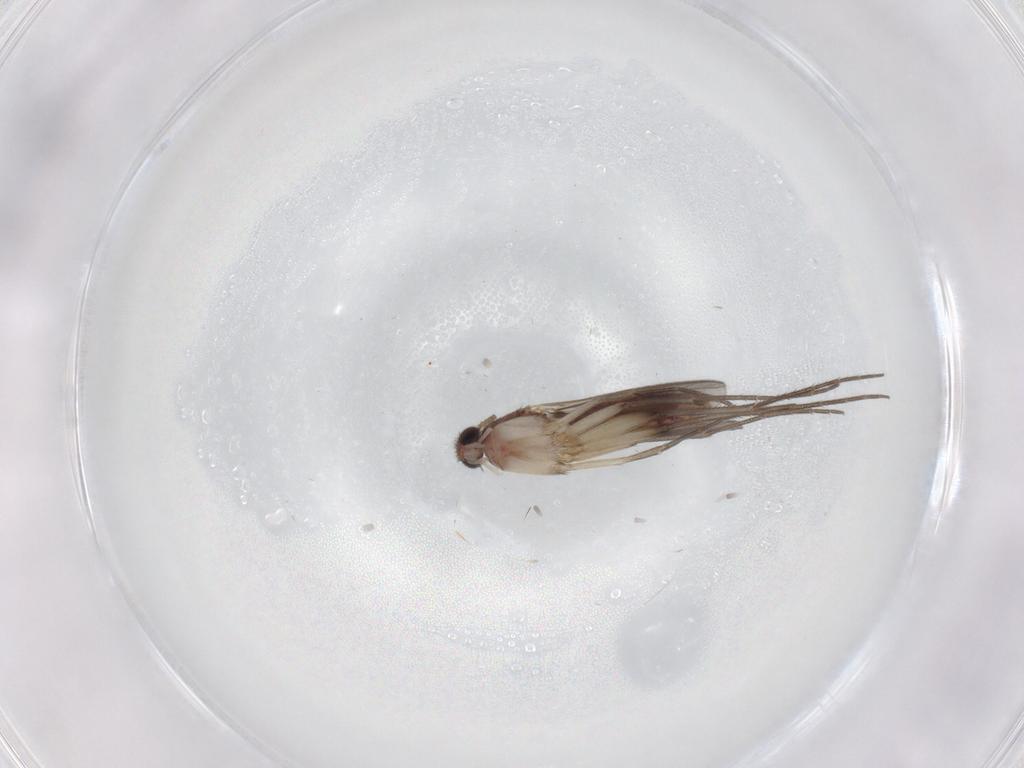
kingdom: Animalia
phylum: Arthropoda
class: Insecta
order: Diptera
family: Mycetophilidae
